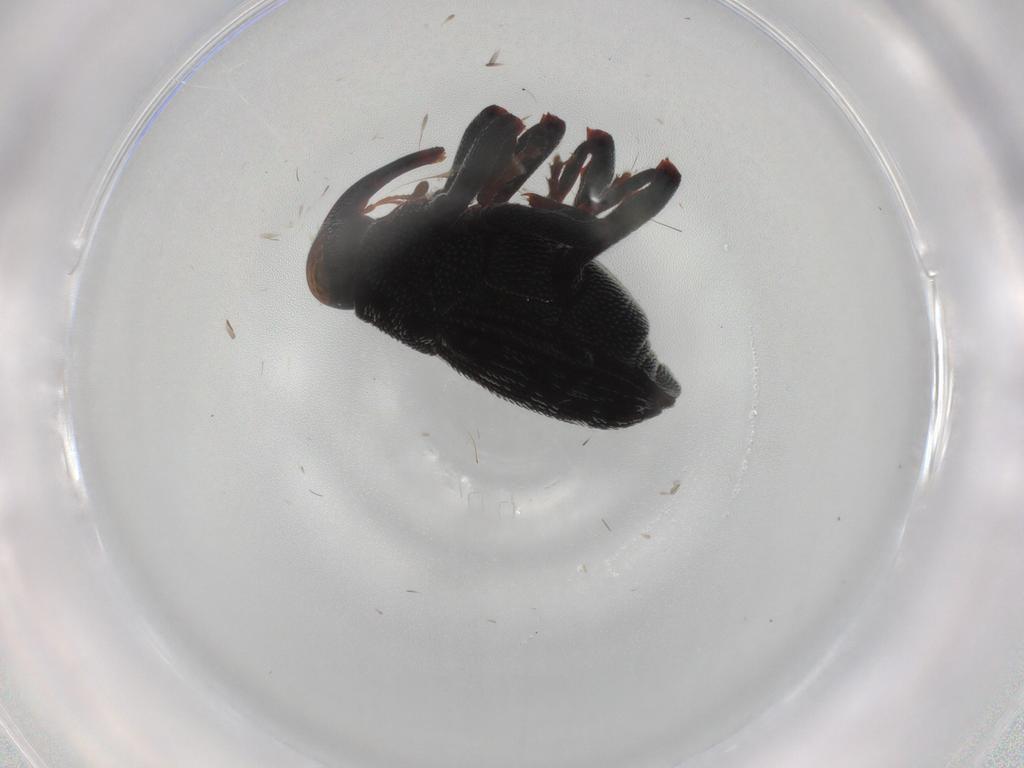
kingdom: Animalia
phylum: Arthropoda
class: Insecta
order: Coleoptera
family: Curculionidae
